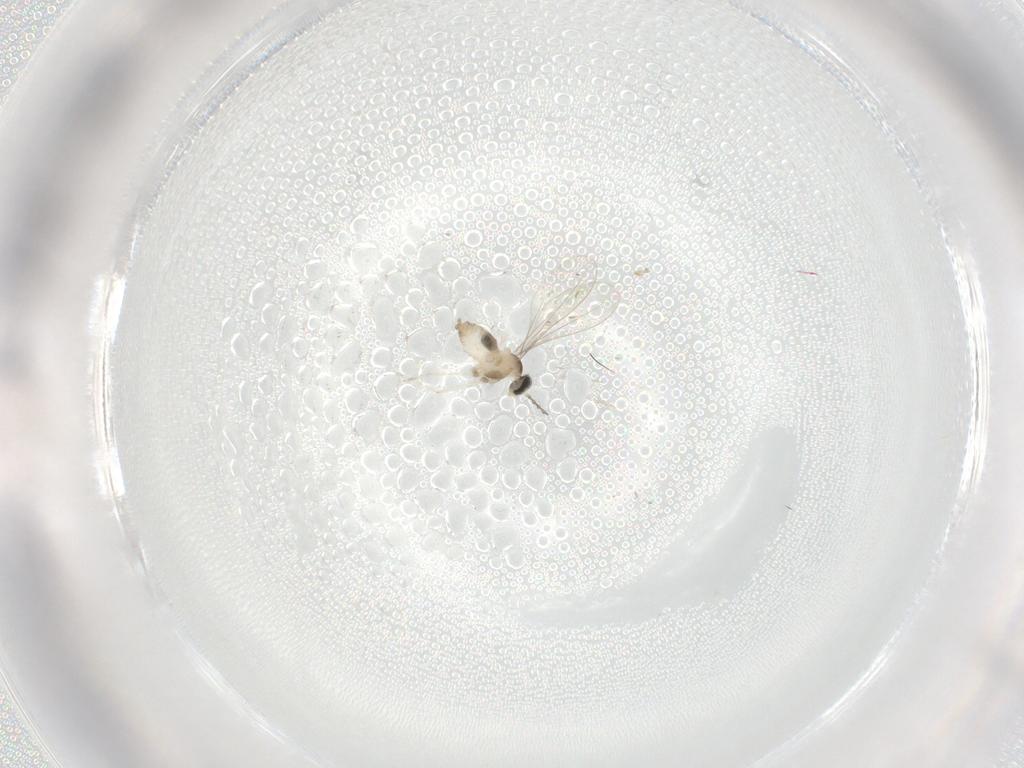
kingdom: Animalia
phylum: Arthropoda
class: Insecta
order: Diptera
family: Cecidomyiidae
